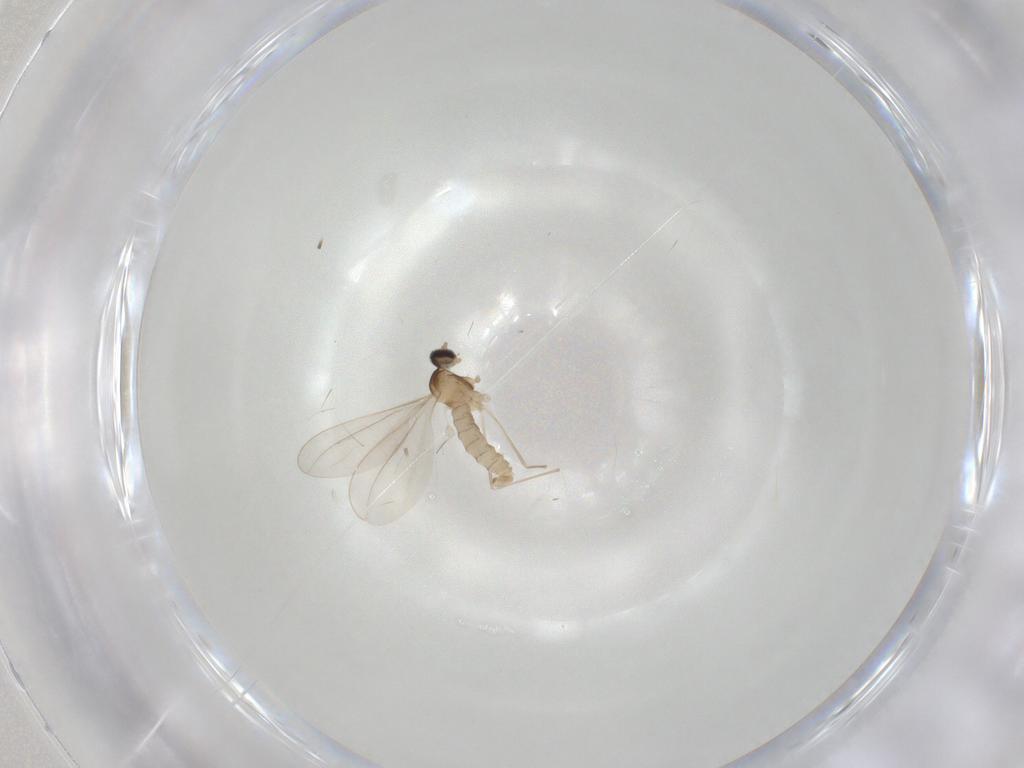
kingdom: Animalia
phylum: Arthropoda
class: Insecta
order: Diptera
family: Cecidomyiidae
